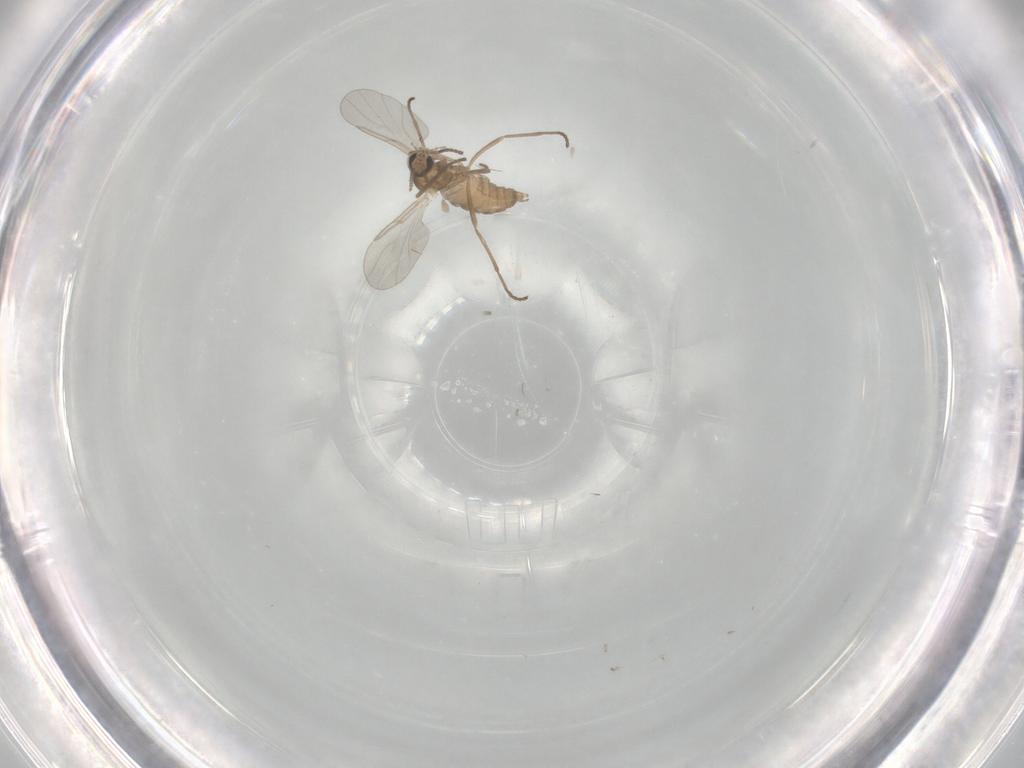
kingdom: Animalia
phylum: Arthropoda
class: Insecta
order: Diptera
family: Cecidomyiidae
